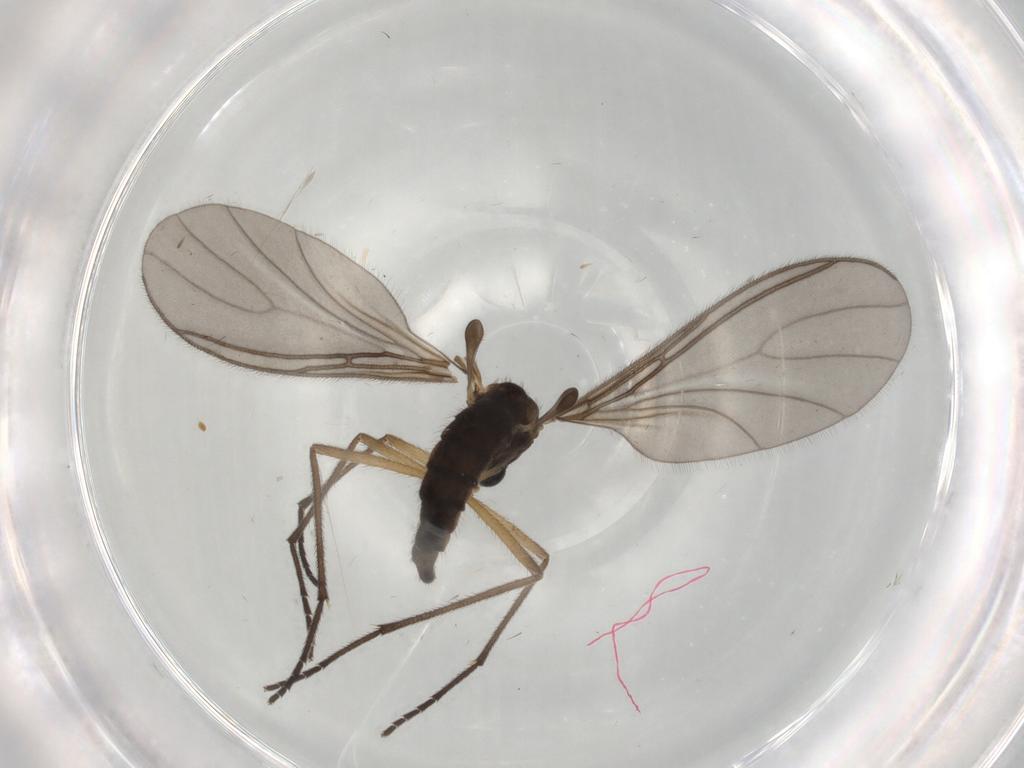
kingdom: Animalia
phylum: Arthropoda
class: Insecta
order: Diptera
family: Sciaridae
